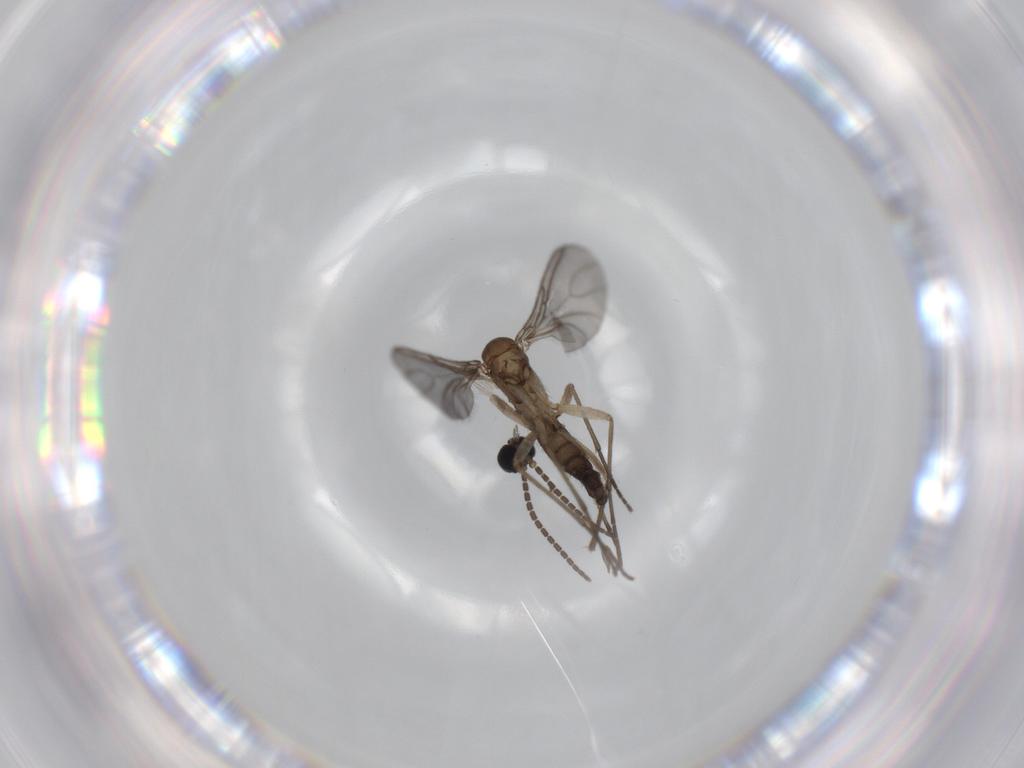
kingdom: Animalia
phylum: Arthropoda
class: Insecta
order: Diptera
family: Sciaridae
